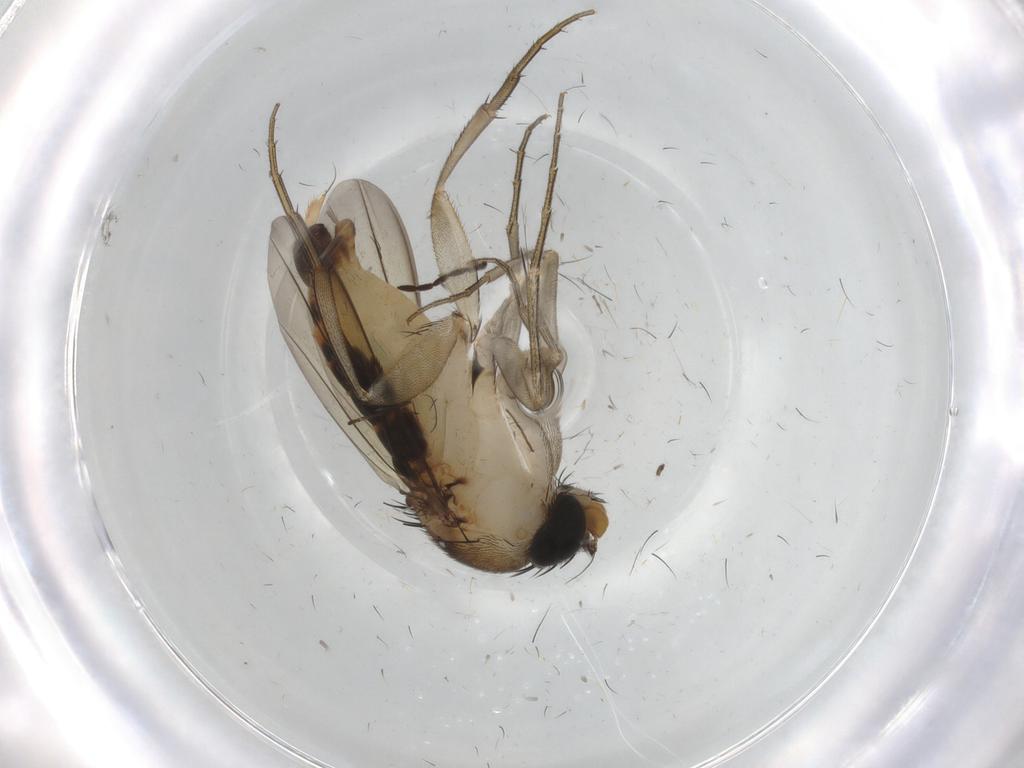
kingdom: Animalia
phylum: Arthropoda
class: Insecta
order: Diptera
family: Phoridae
